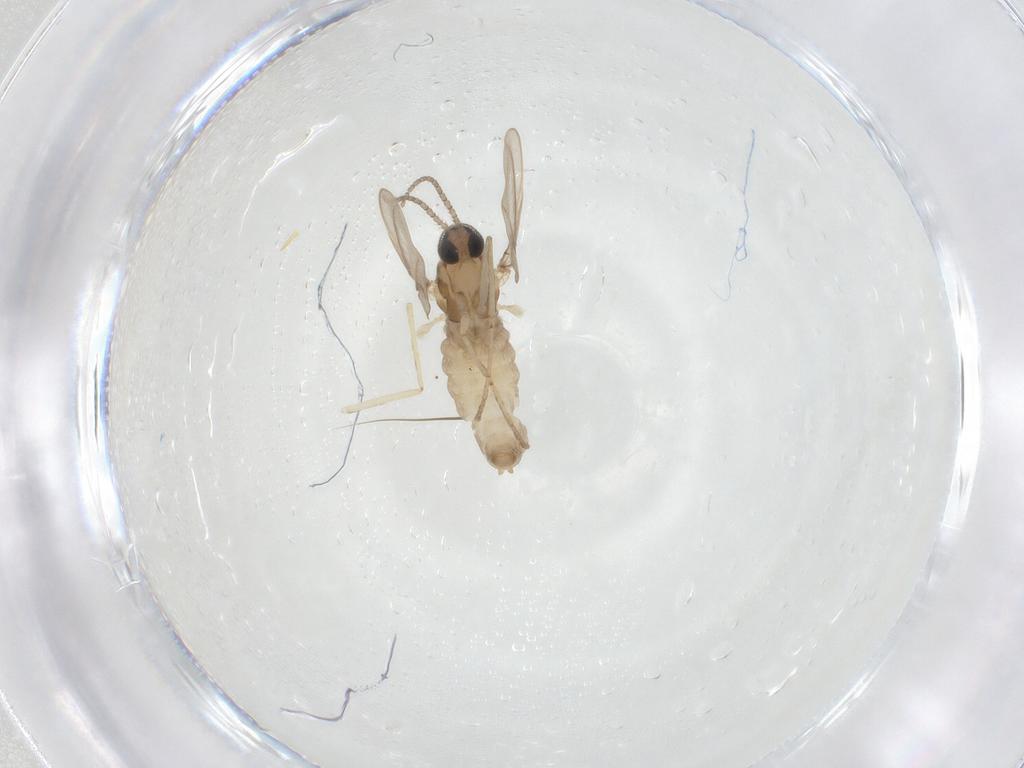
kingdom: Animalia
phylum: Arthropoda
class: Insecta
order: Diptera
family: Cecidomyiidae
